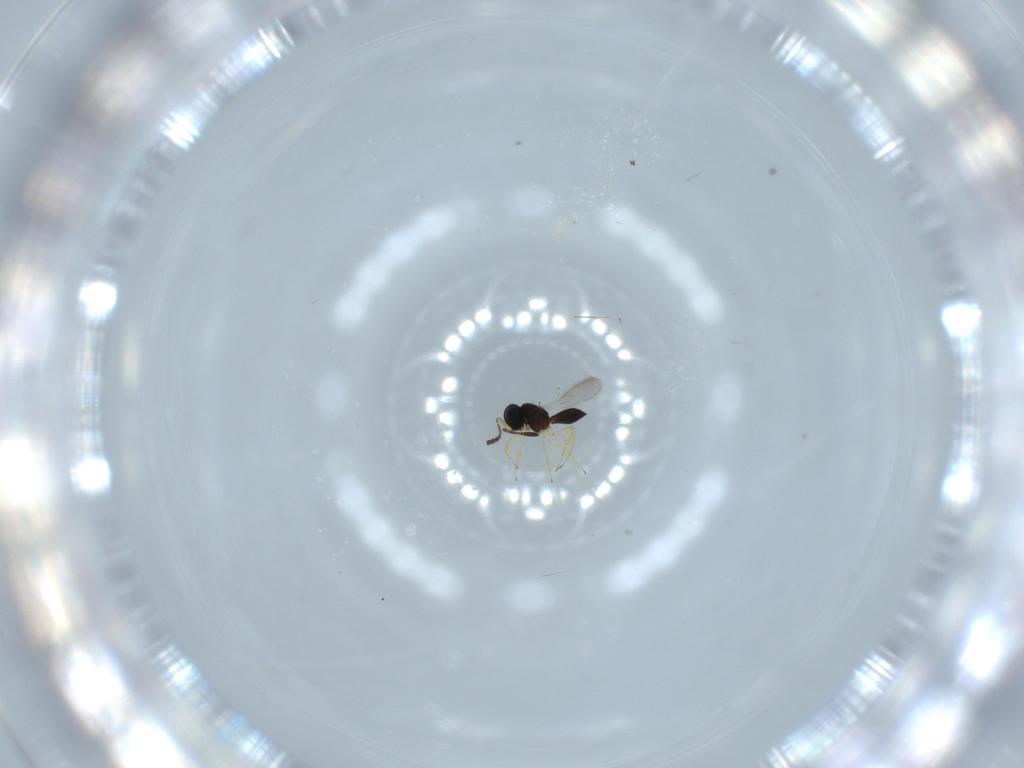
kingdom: Animalia
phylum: Arthropoda
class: Insecta
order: Hymenoptera
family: Scelionidae
